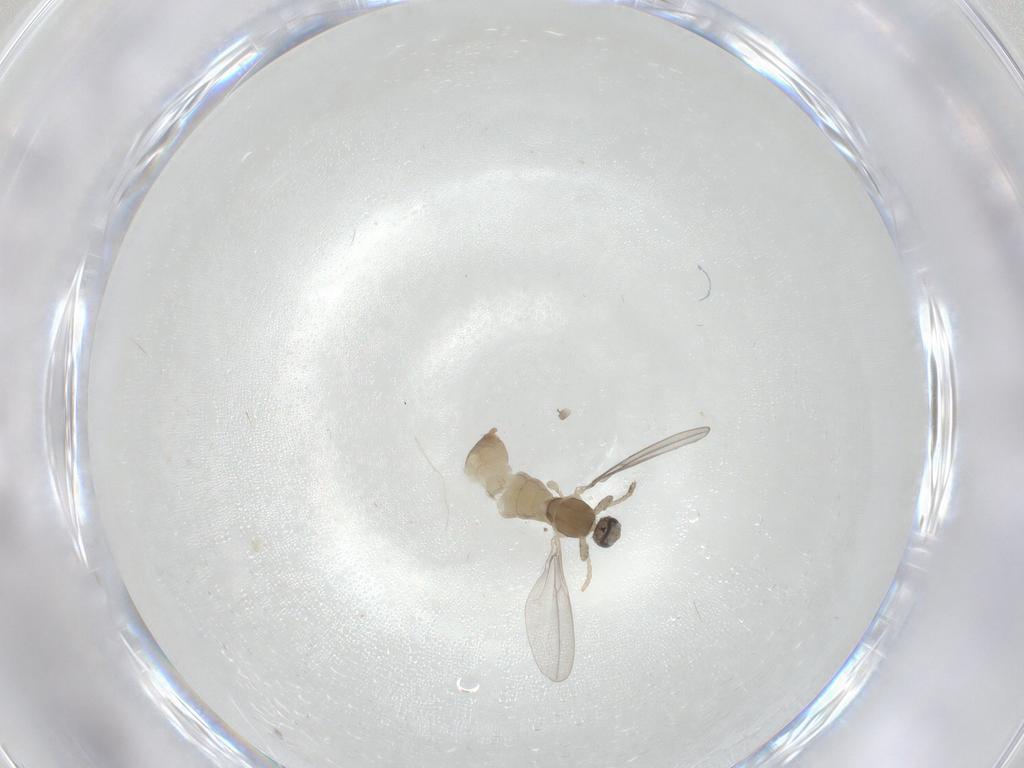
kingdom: Animalia
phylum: Arthropoda
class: Insecta
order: Diptera
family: Cecidomyiidae
